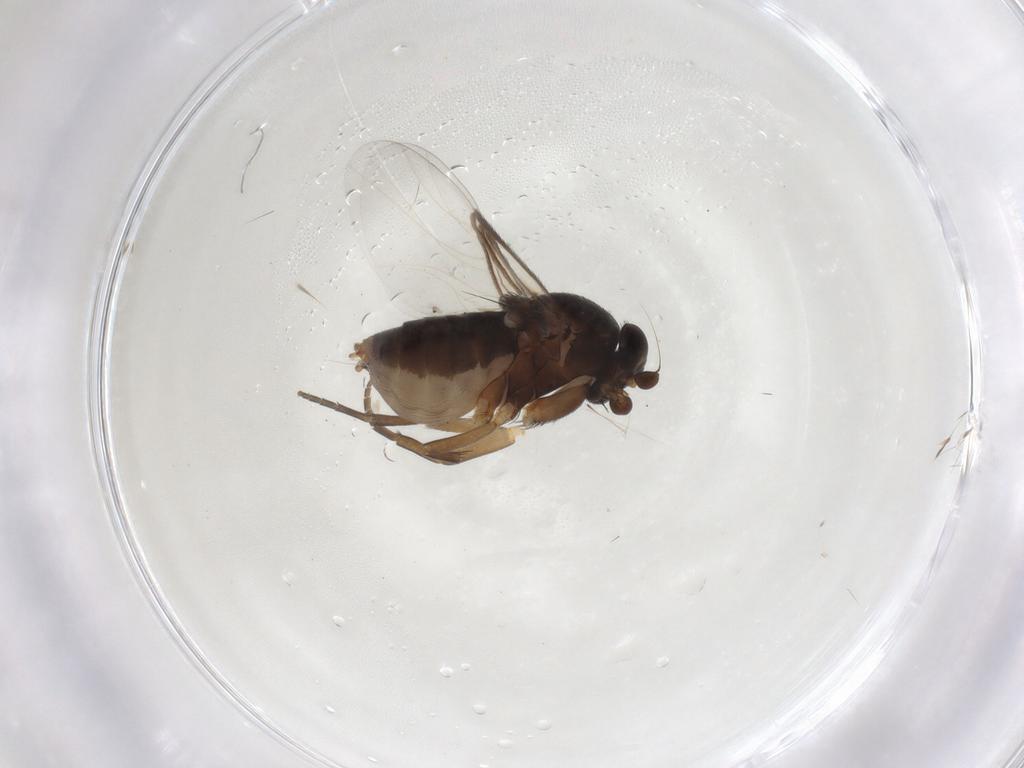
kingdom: Animalia
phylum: Arthropoda
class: Insecta
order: Diptera
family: Phoridae
